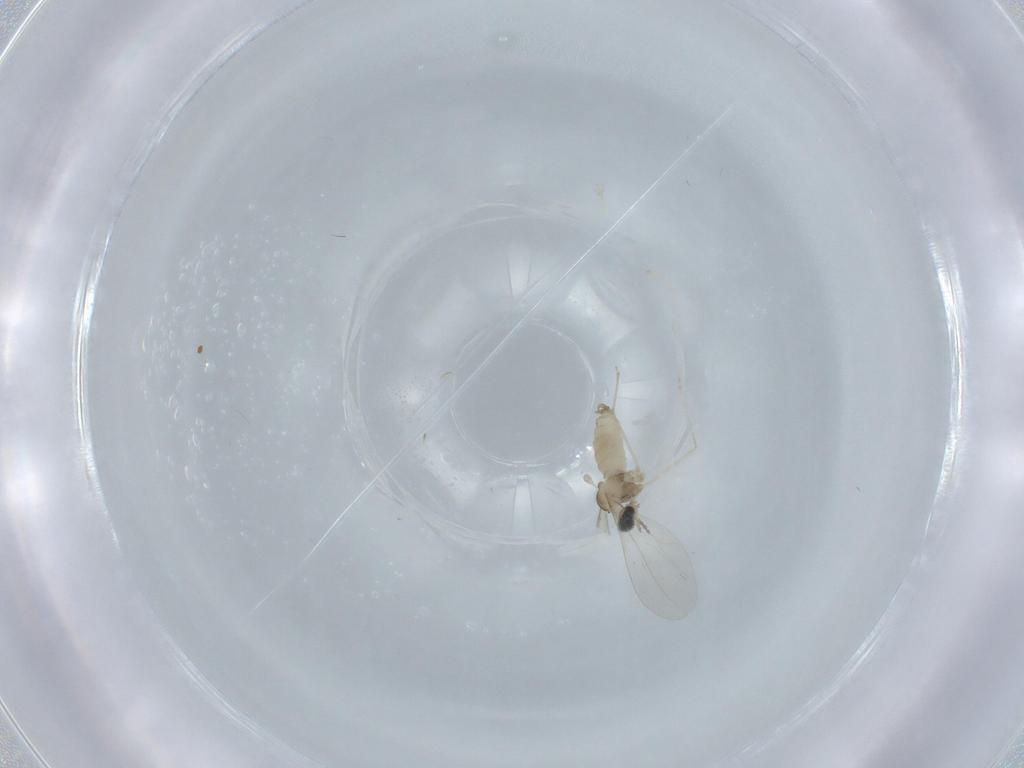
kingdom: Animalia
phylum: Arthropoda
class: Insecta
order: Diptera
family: Cecidomyiidae
